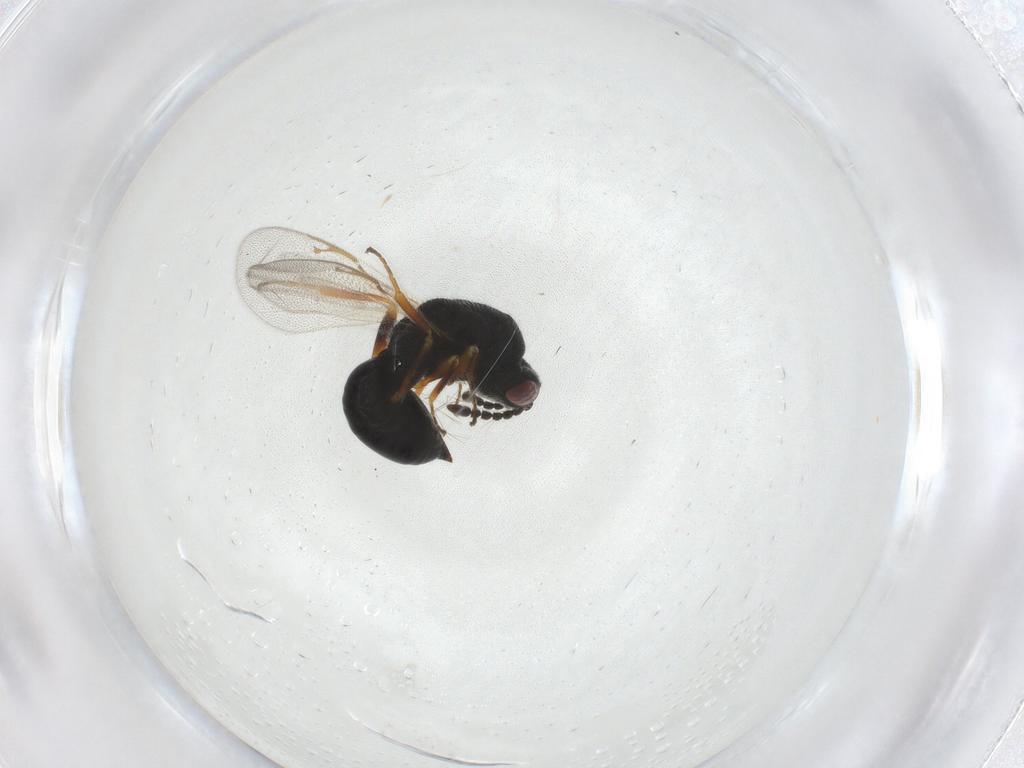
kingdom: Animalia
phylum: Arthropoda
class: Insecta
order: Hymenoptera
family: Eurytomidae
